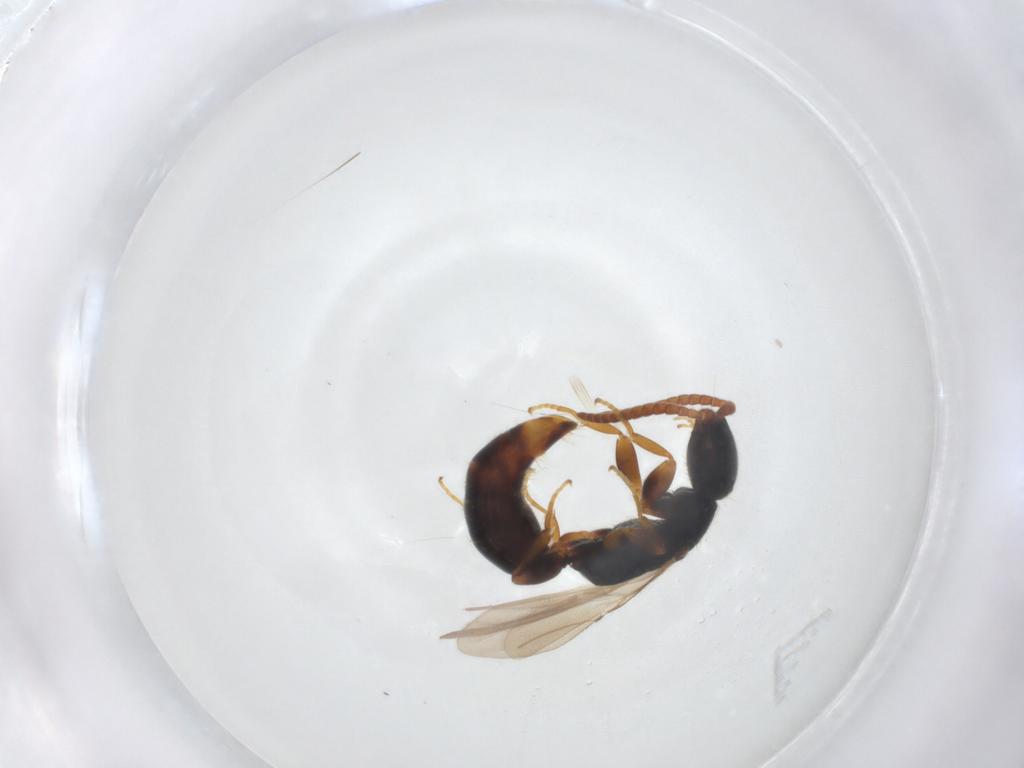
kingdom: Animalia
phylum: Arthropoda
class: Insecta
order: Hymenoptera
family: Bethylidae
